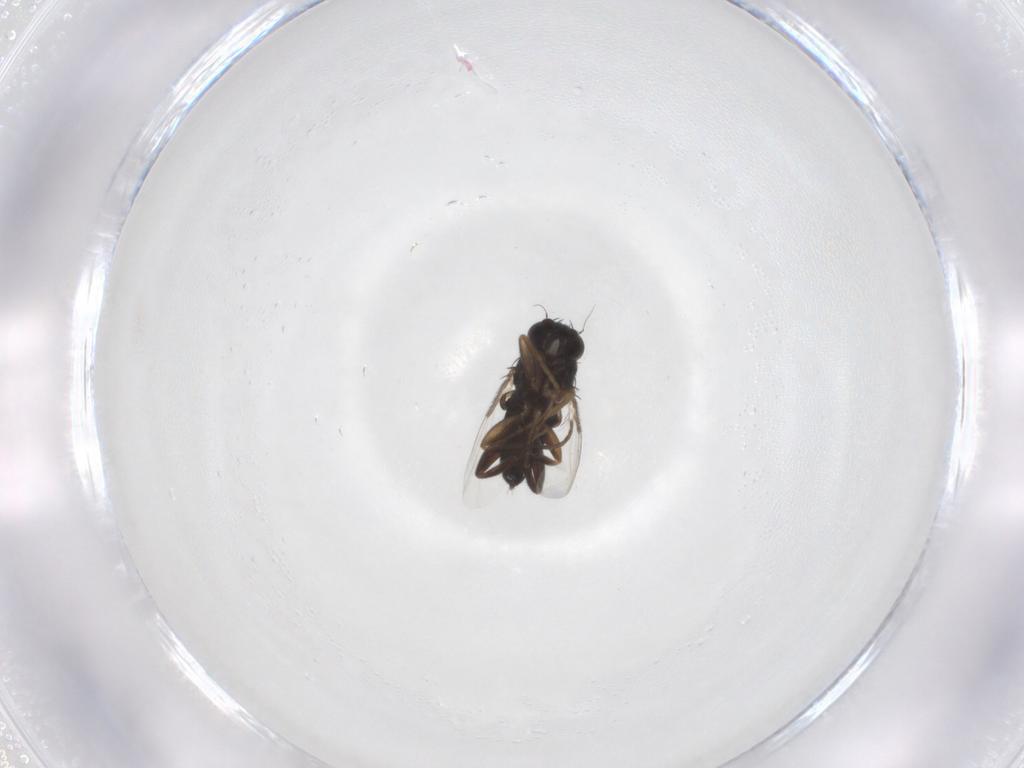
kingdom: Animalia
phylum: Arthropoda
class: Insecta
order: Diptera
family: Phoridae
